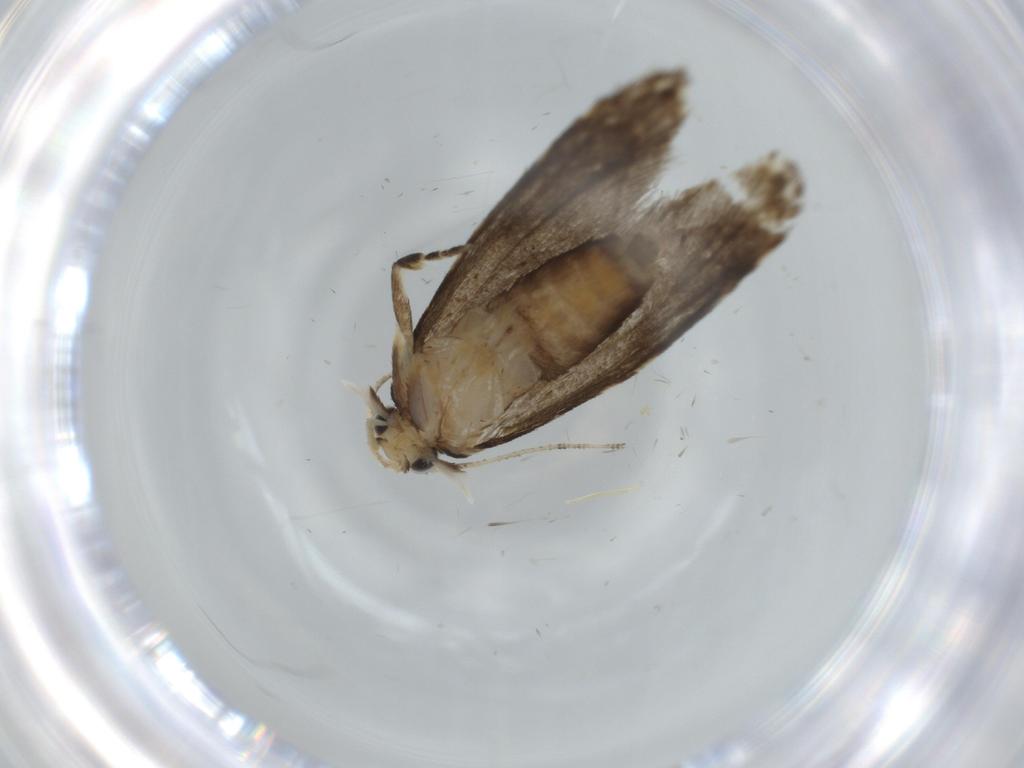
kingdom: Animalia
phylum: Arthropoda
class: Insecta
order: Lepidoptera
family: Tineidae
